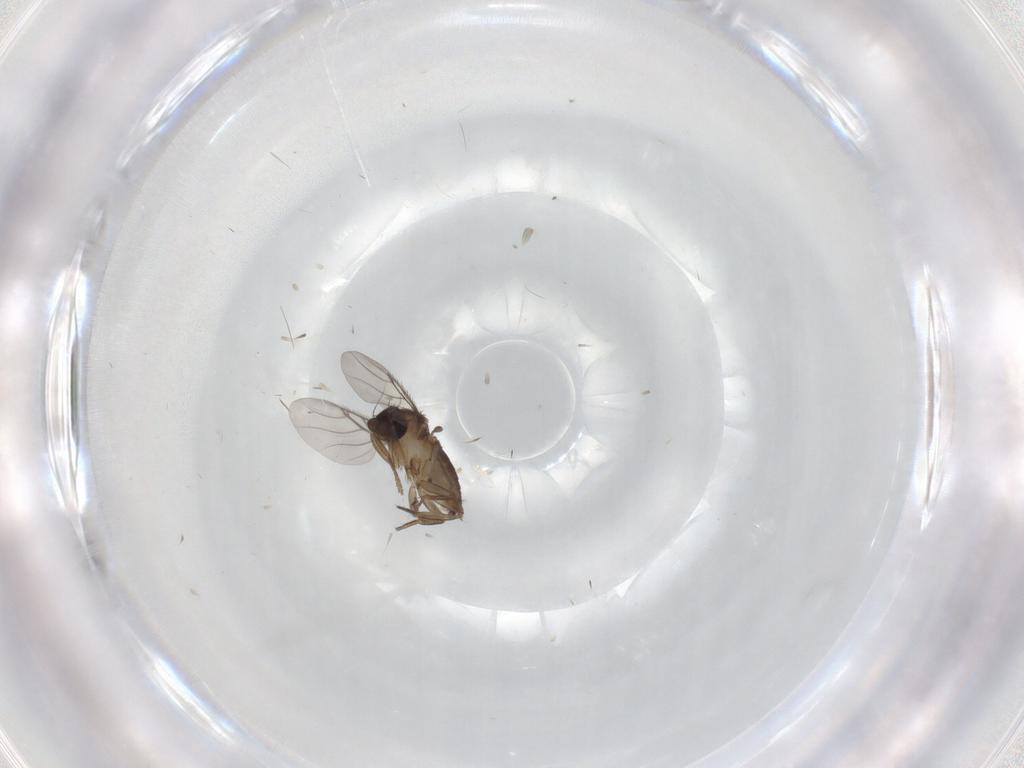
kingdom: Animalia
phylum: Arthropoda
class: Insecta
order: Diptera
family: Phoridae
